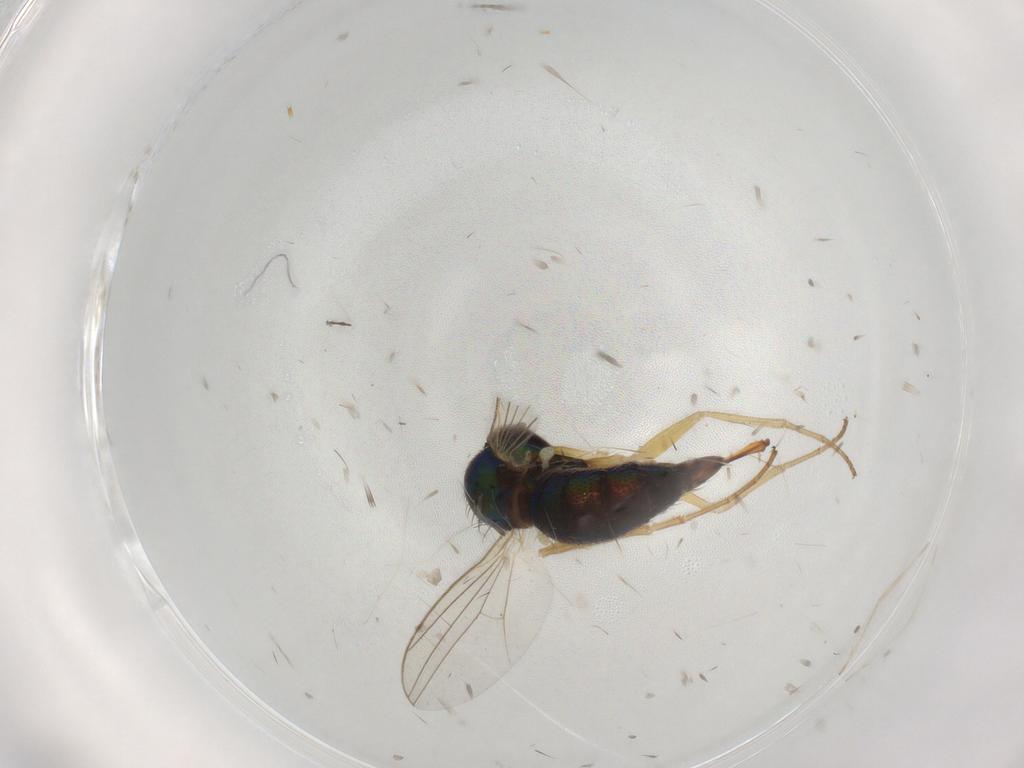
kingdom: Animalia
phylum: Arthropoda
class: Insecta
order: Diptera
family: Dolichopodidae
